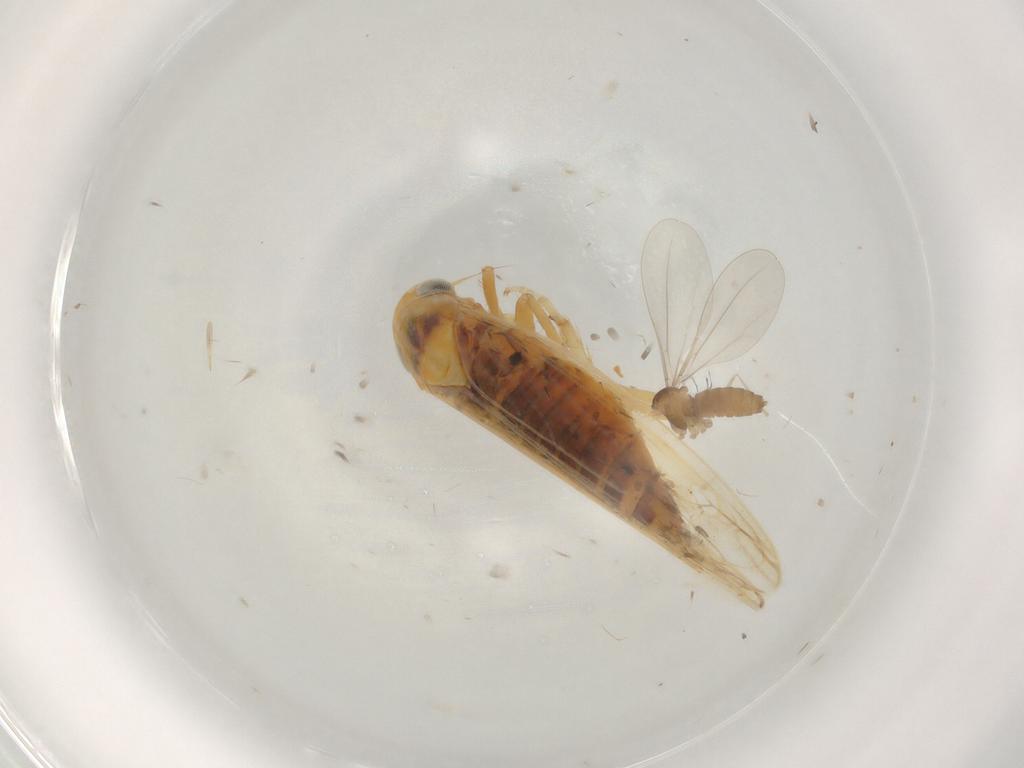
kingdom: Animalia
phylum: Arthropoda
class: Insecta
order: Hemiptera
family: Cicadellidae
